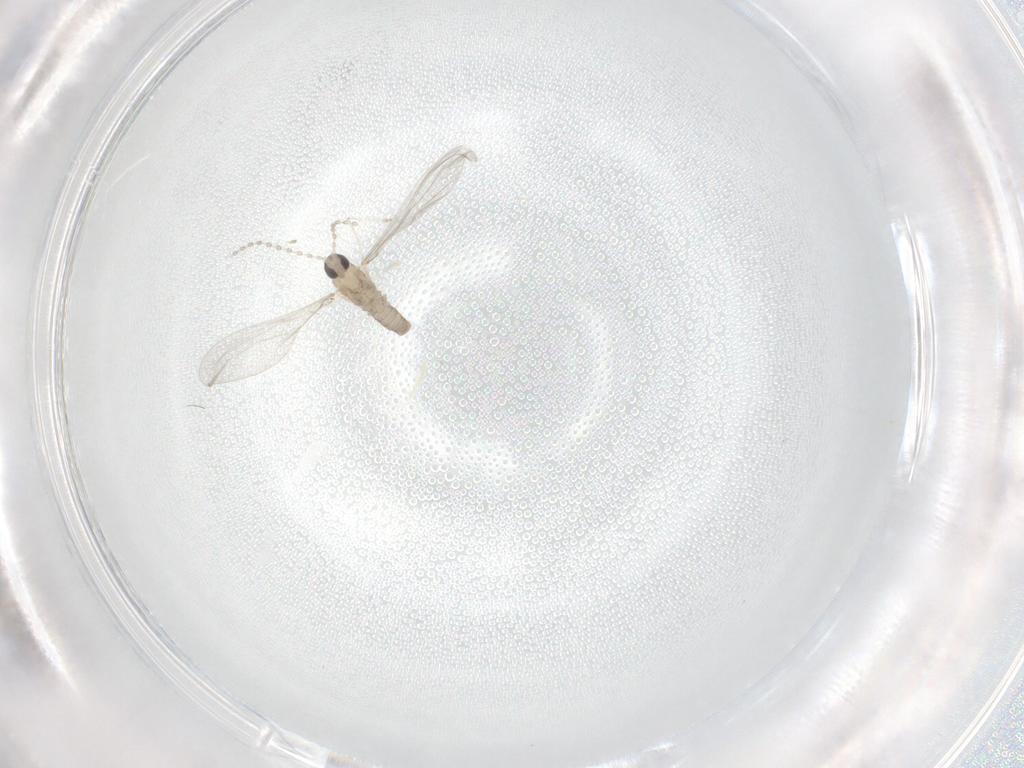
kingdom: Animalia
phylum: Arthropoda
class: Insecta
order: Diptera
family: Cecidomyiidae
